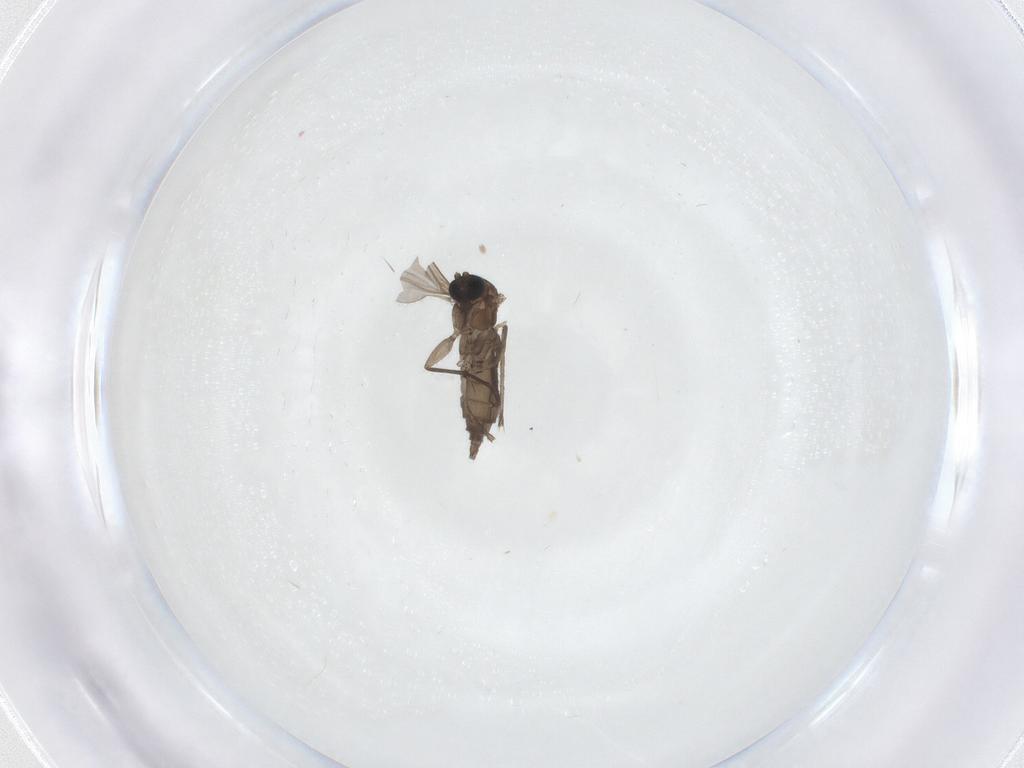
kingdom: Animalia
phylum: Arthropoda
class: Insecta
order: Diptera
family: Sciaridae
